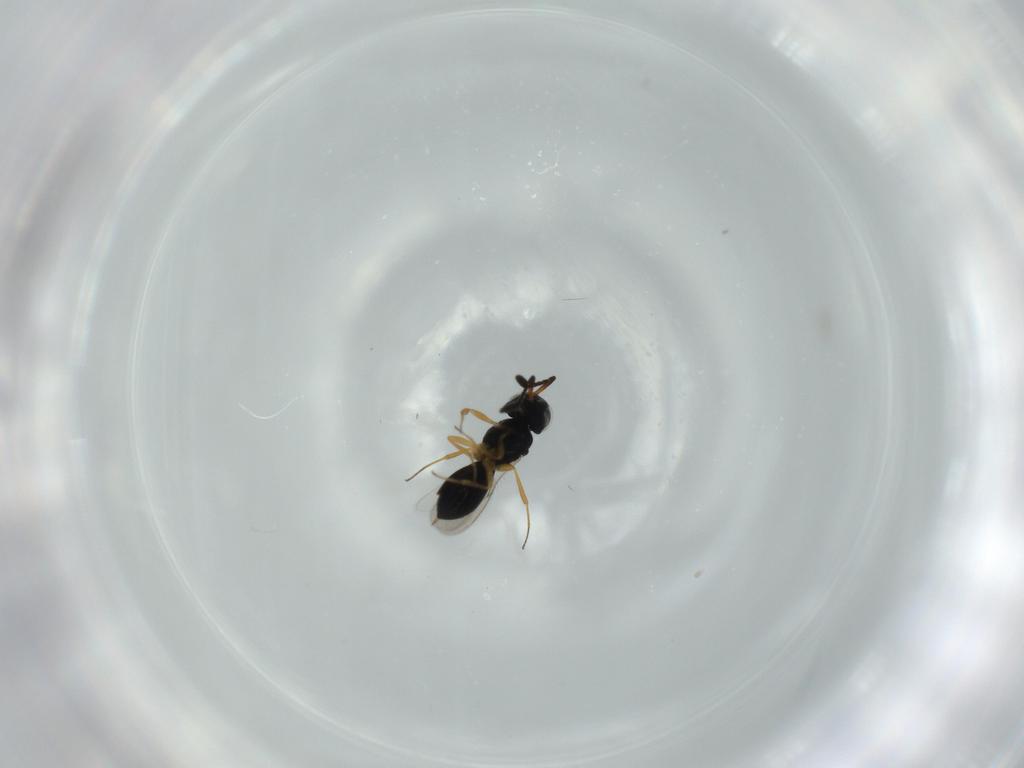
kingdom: Animalia
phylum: Arthropoda
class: Insecta
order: Hymenoptera
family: Scelionidae
